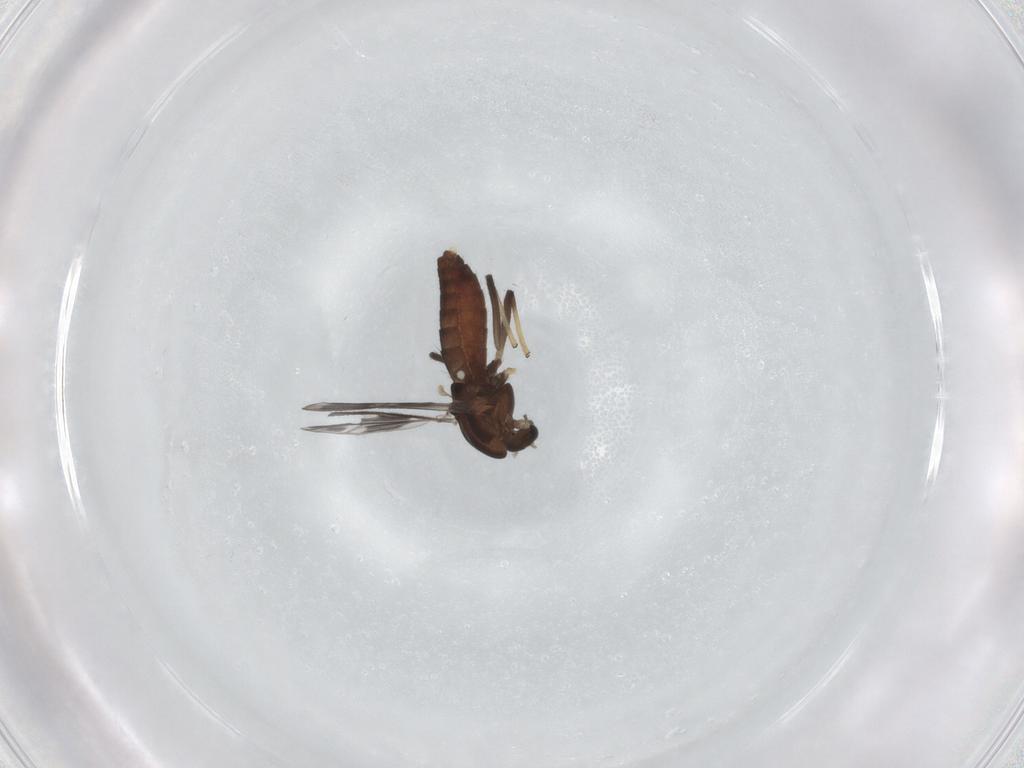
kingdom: Animalia
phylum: Arthropoda
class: Insecta
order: Diptera
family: Chironomidae
